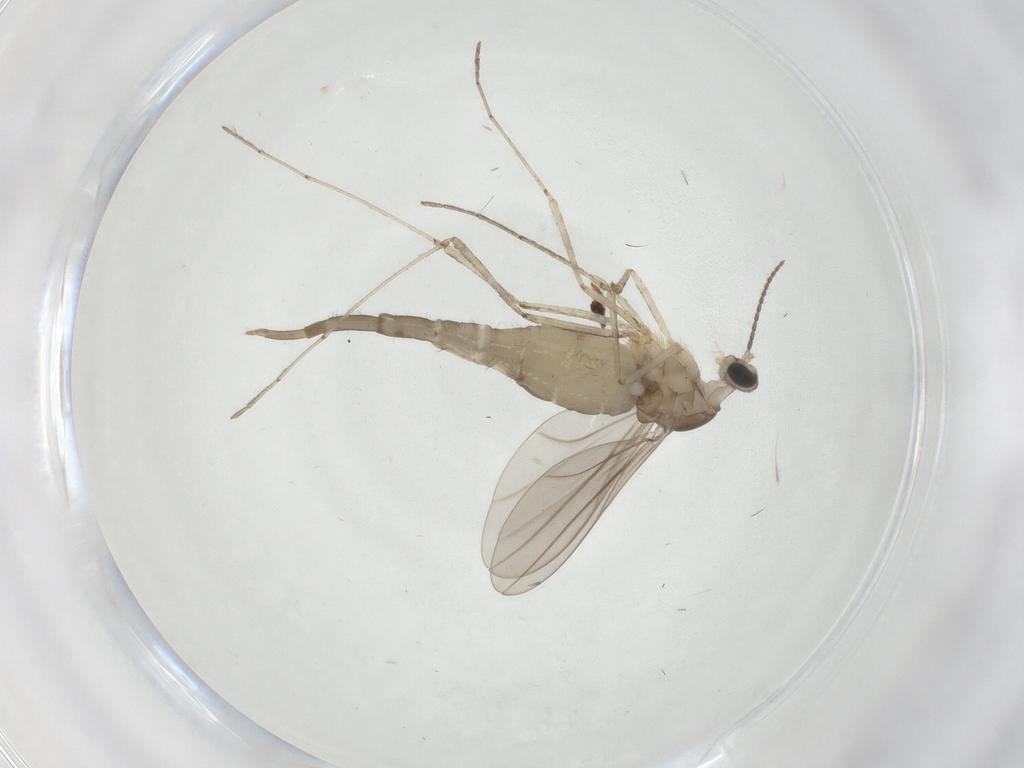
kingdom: Animalia
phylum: Arthropoda
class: Insecta
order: Diptera
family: Cecidomyiidae
